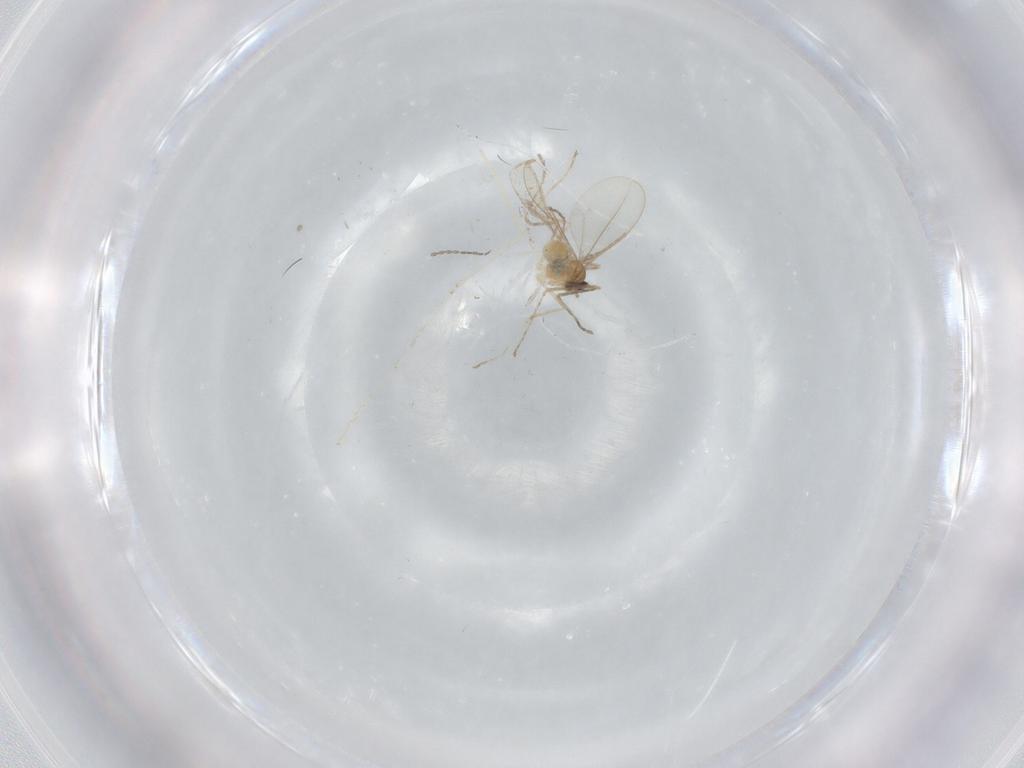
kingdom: Animalia
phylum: Arthropoda
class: Insecta
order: Diptera
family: Cecidomyiidae
